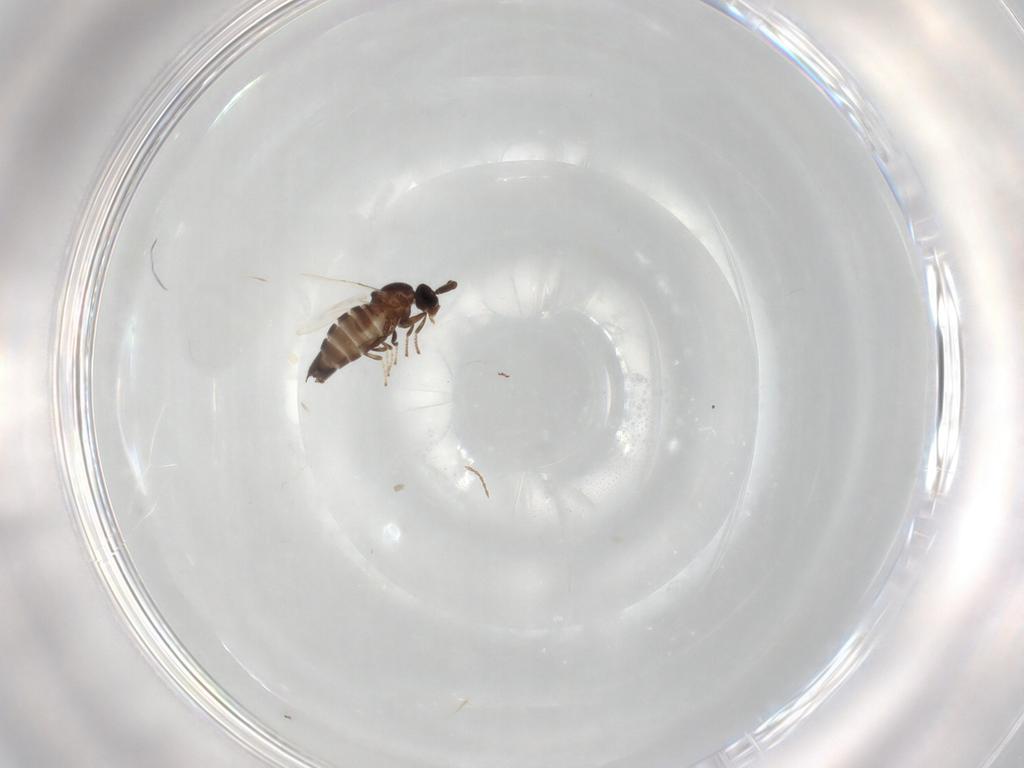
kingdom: Animalia
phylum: Arthropoda
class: Insecta
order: Diptera
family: Scatopsidae
